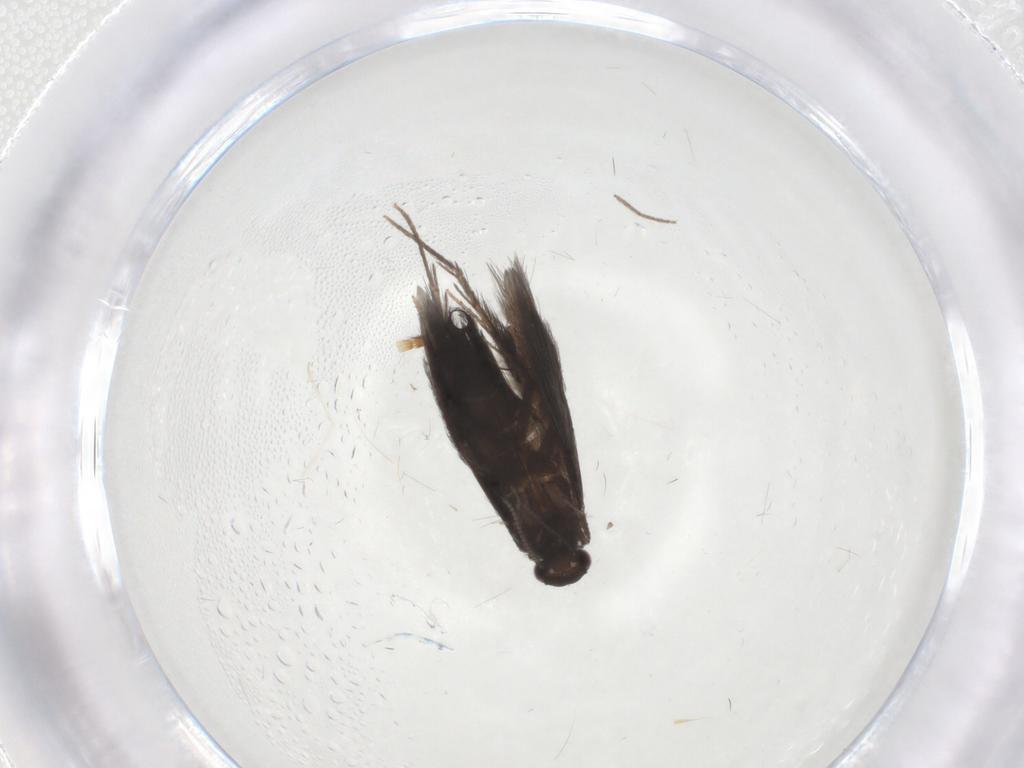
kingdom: Animalia
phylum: Arthropoda
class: Insecta
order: Trichoptera
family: Hydroptilidae
